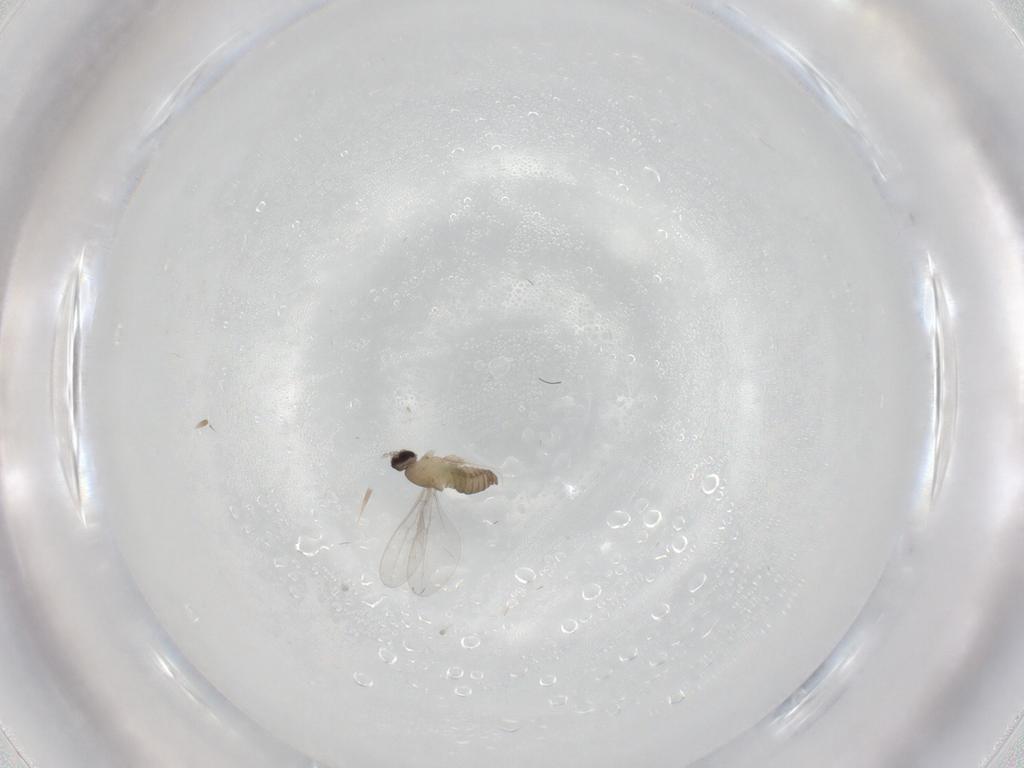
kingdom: Animalia
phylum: Arthropoda
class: Insecta
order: Diptera
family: Cecidomyiidae
